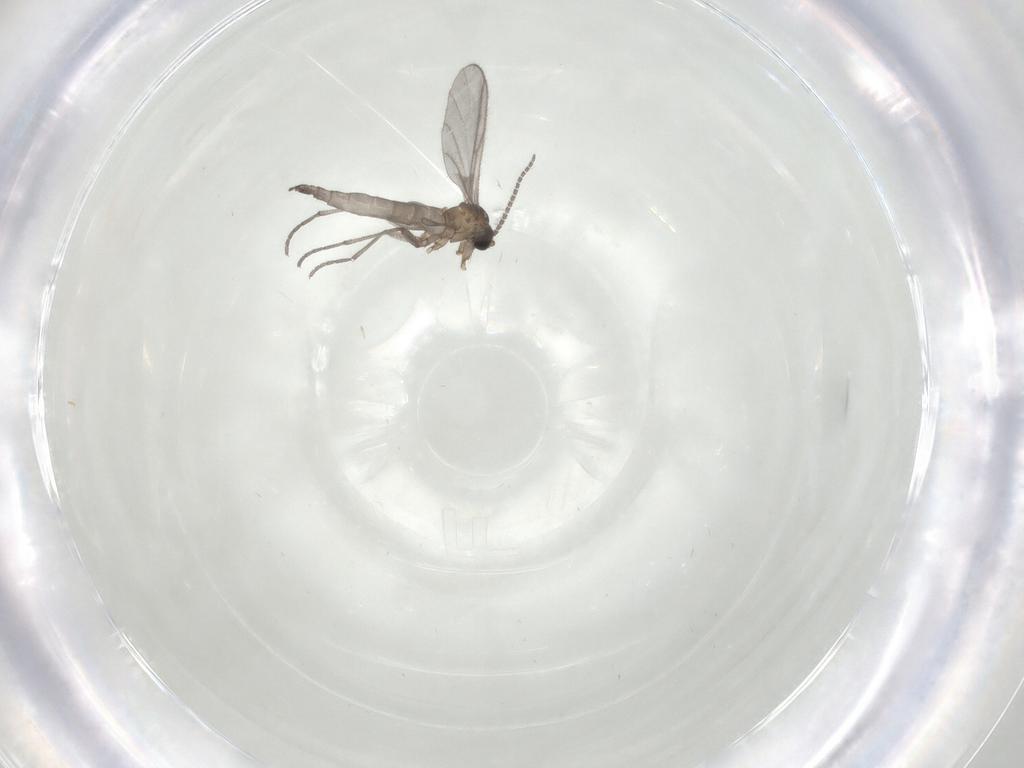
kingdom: Animalia
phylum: Arthropoda
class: Insecta
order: Diptera
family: Sciaridae
